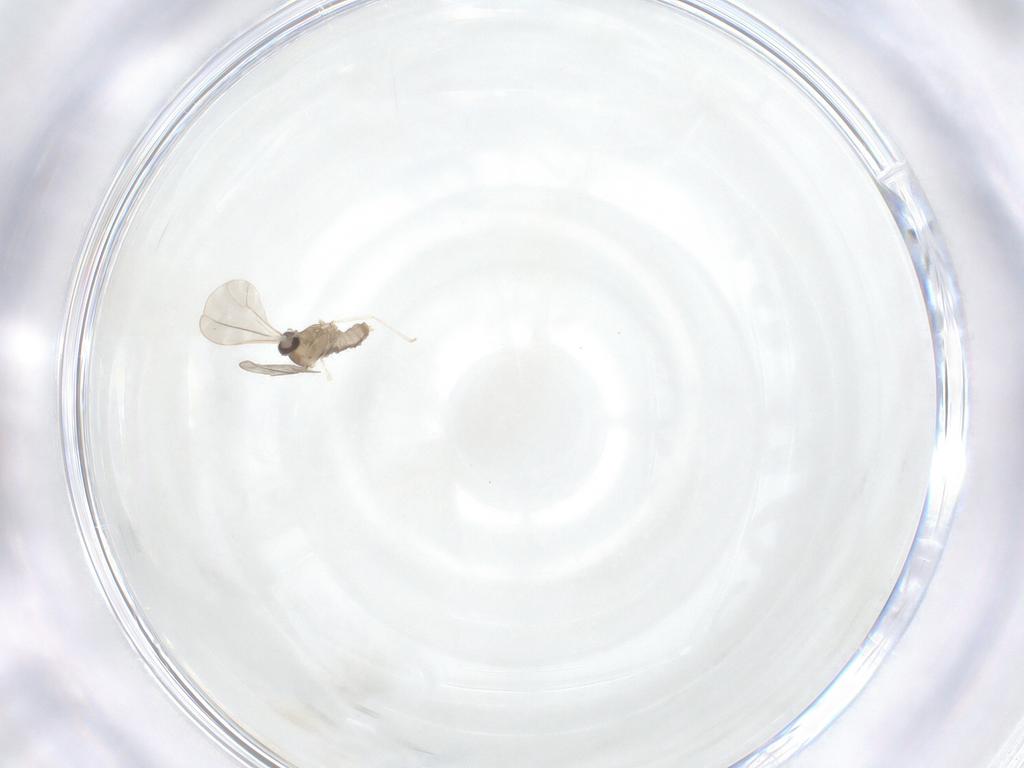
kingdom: Animalia
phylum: Arthropoda
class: Insecta
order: Diptera
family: Cecidomyiidae
